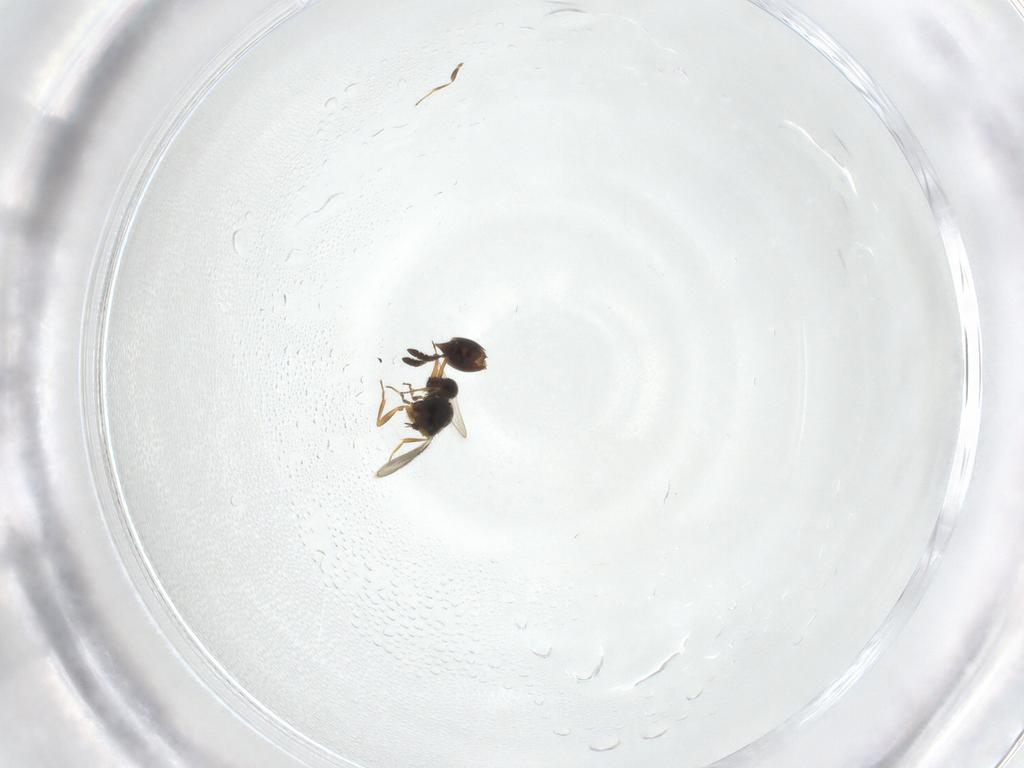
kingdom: Animalia
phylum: Arthropoda
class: Insecta
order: Hymenoptera
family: Ceraphronidae
